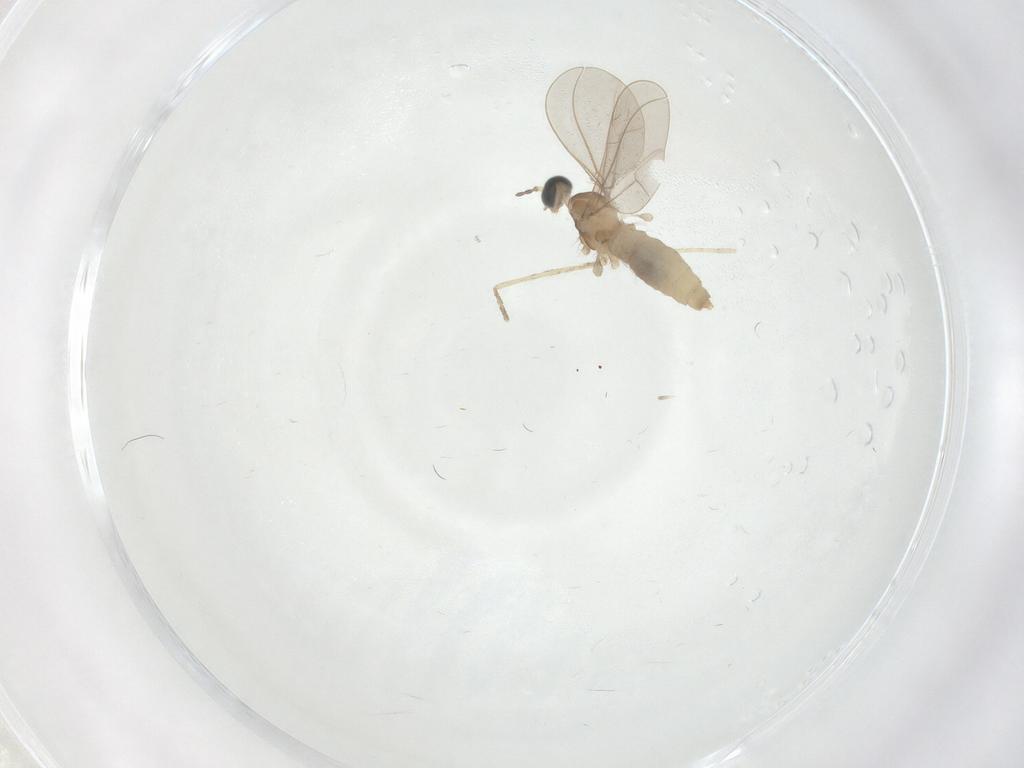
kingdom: Animalia
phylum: Arthropoda
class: Insecta
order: Diptera
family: Cecidomyiidae
